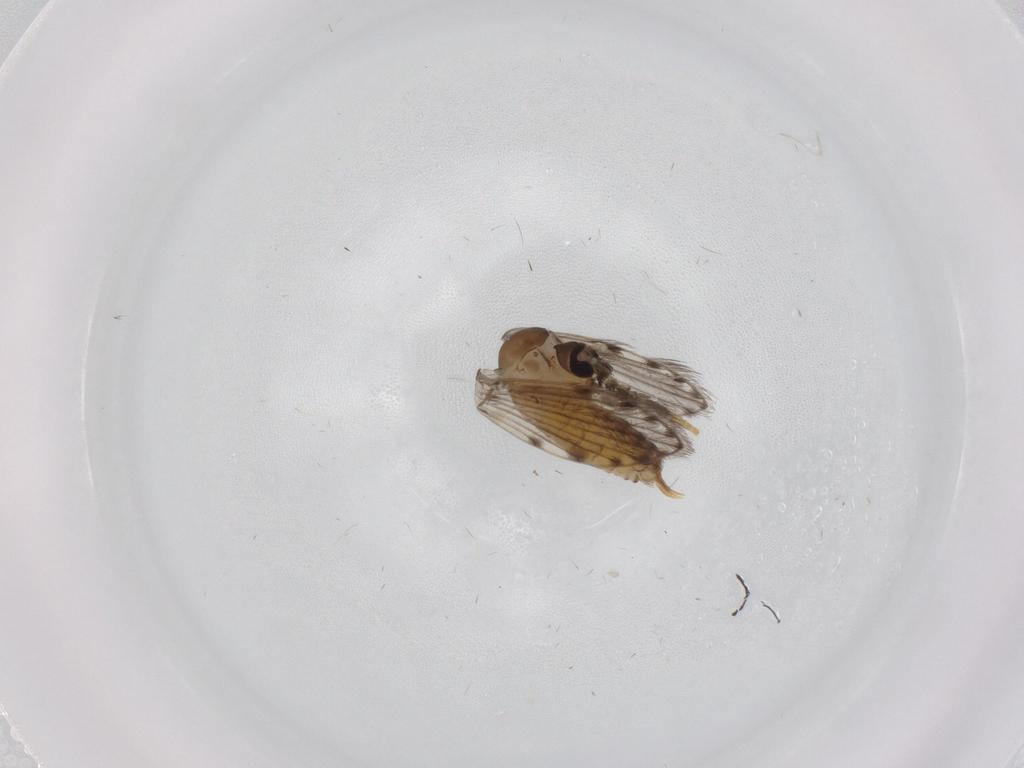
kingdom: Animalia
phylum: Arthropoda
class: Insecta
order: Diptera
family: Sciaridae
